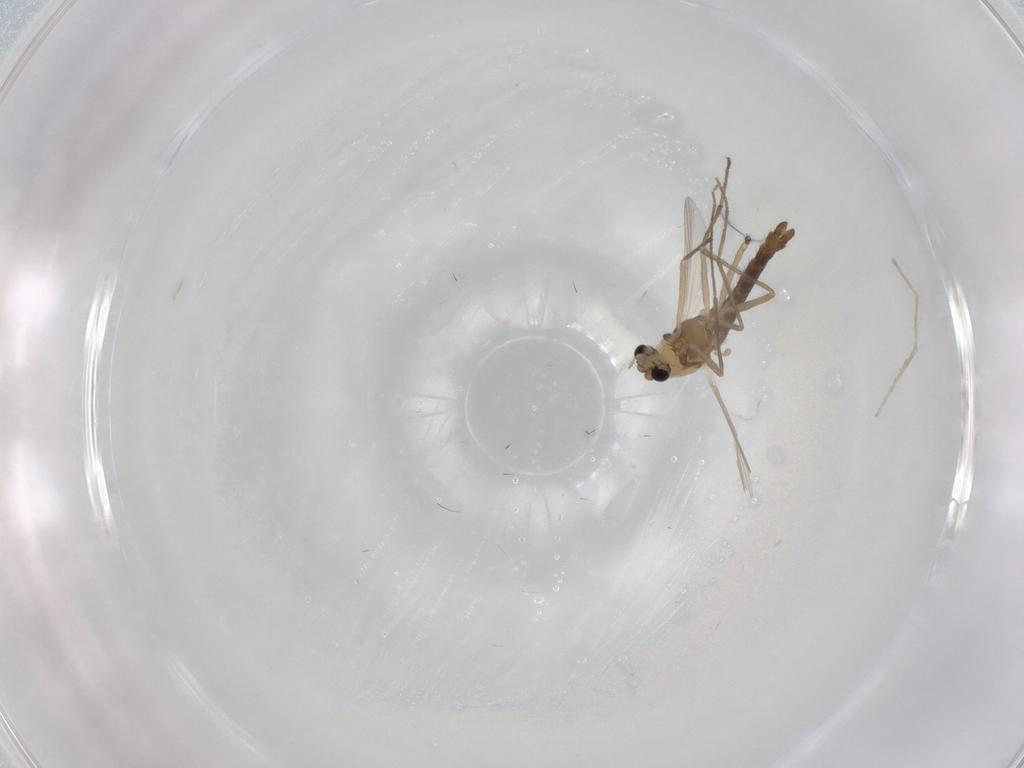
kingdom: Animalia
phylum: Arthropoda
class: Insecta
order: Diptera
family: Chironomidae
